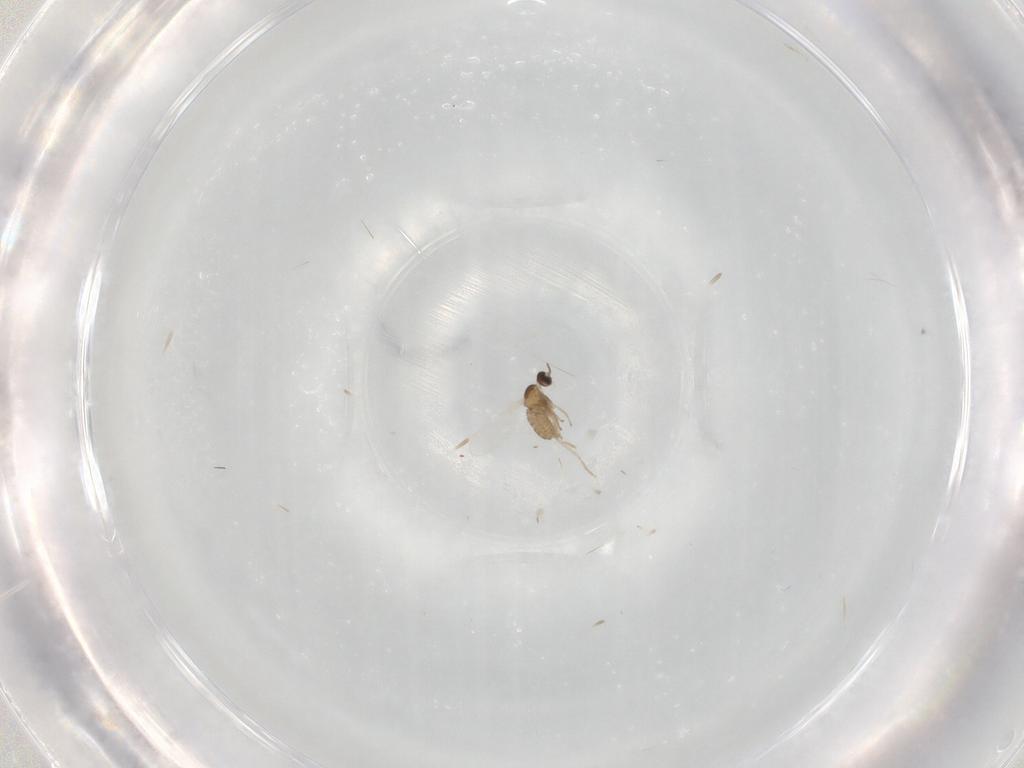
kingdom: Animalia
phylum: Arthropoda
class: Insecta
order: Diptera
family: Cecidomyiidae
